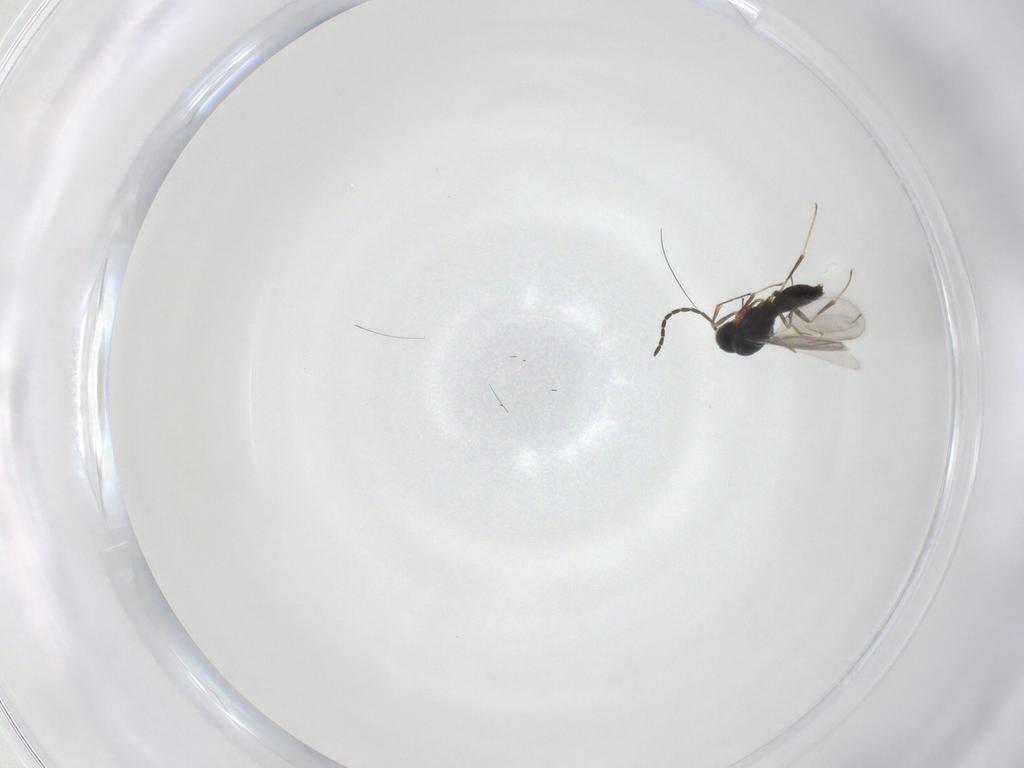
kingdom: Animalia
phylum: Arthropoda
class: Insecta
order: Hymenoptera
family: Scelionidae
